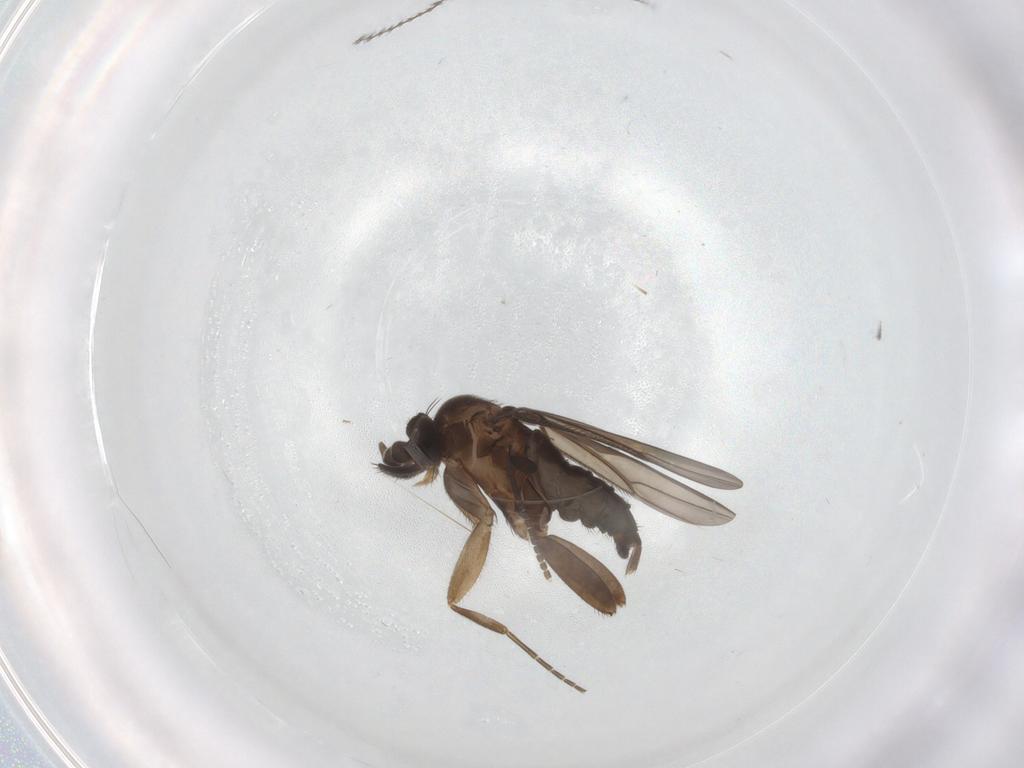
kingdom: Animalia
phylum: Arthropoda
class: Insecta
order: Diptera
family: Phoridae
